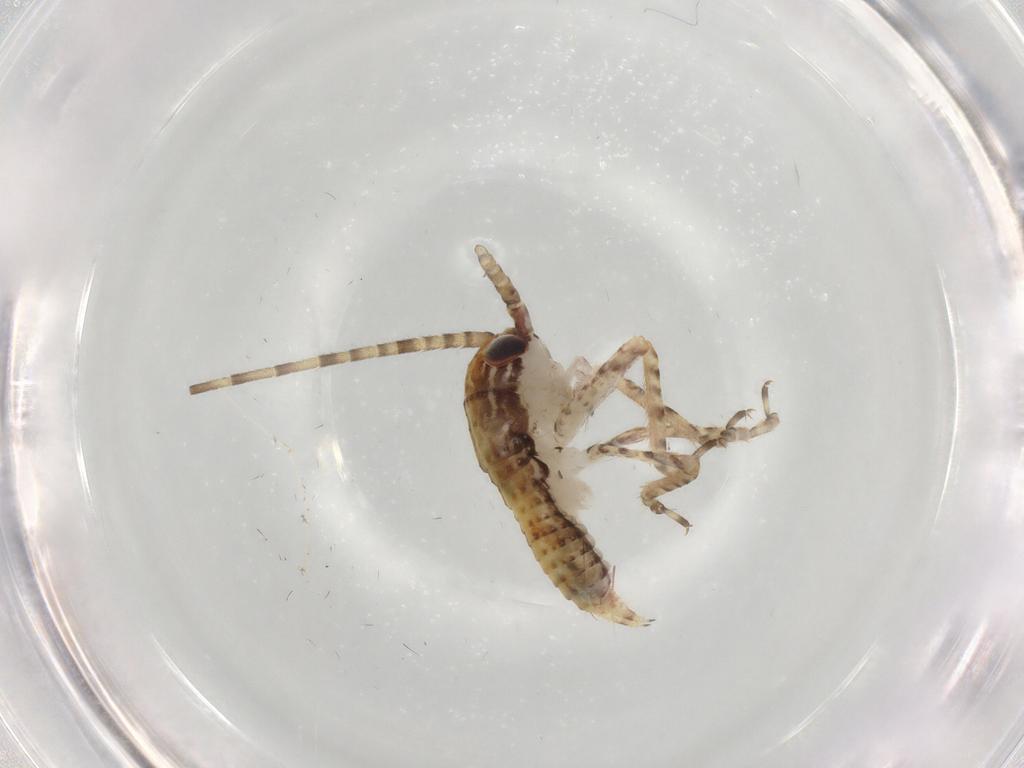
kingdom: Animalia
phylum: Arthropoda
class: Insecta
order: Orthoptera
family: Gryllidae
